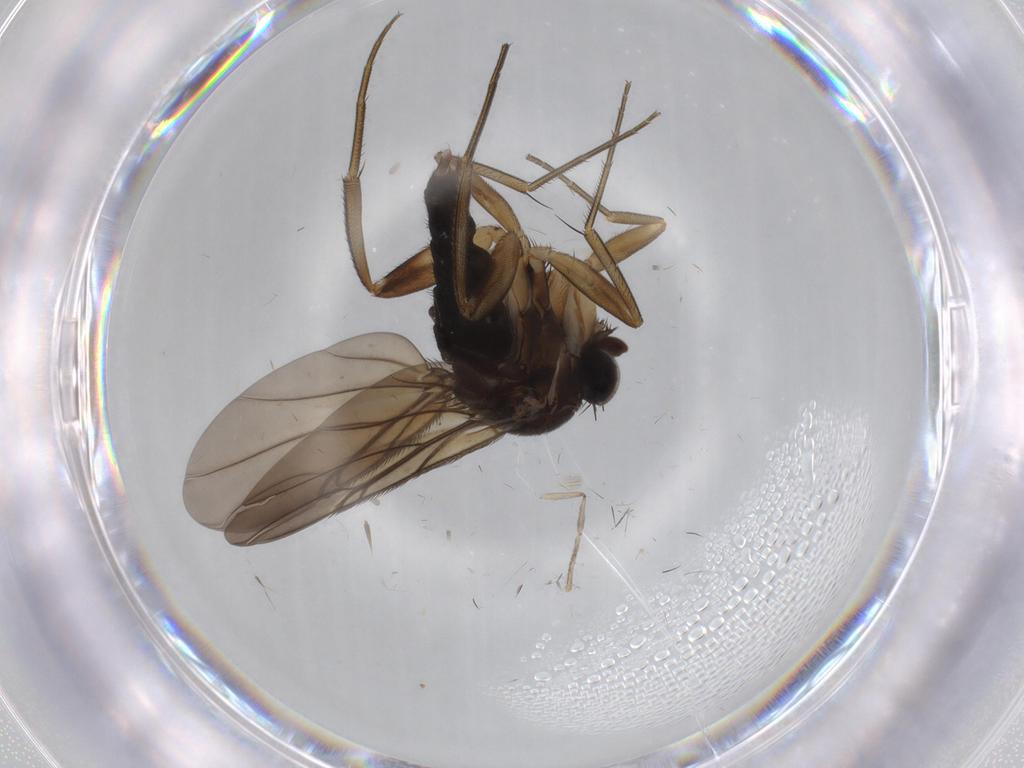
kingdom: Animalia
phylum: Arthropoda
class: Insecta
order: Diptera
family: Phoridae
